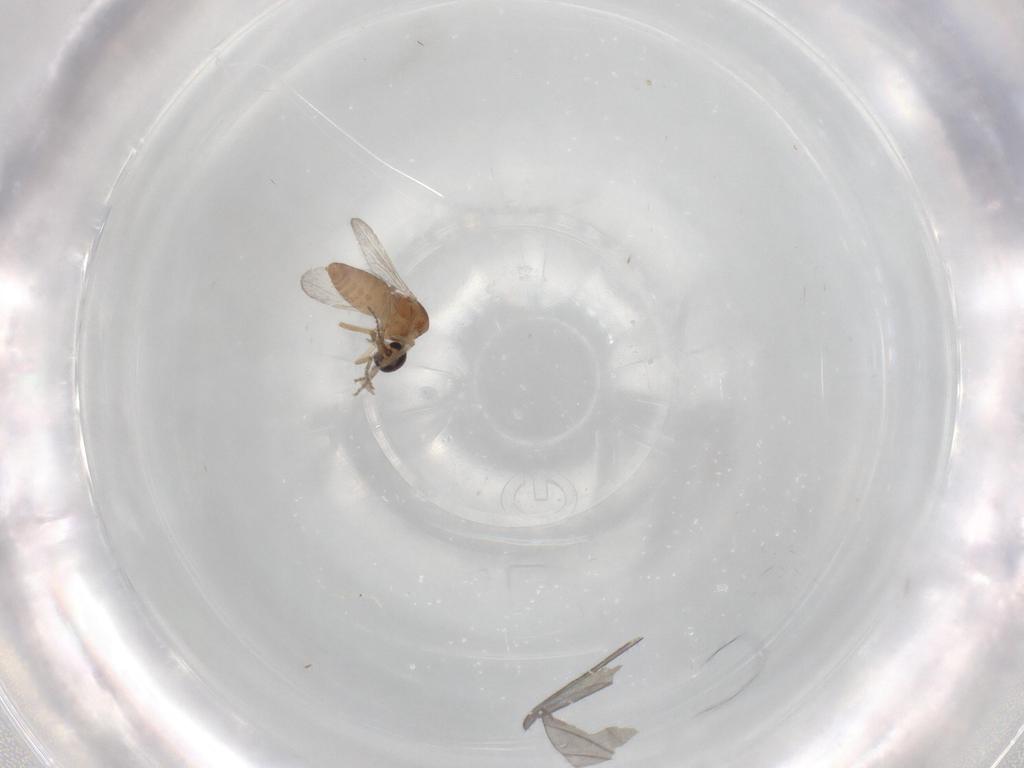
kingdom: Animalia
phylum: Arthropoda
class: Insecta
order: Diptera
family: Ceratopogonidae
